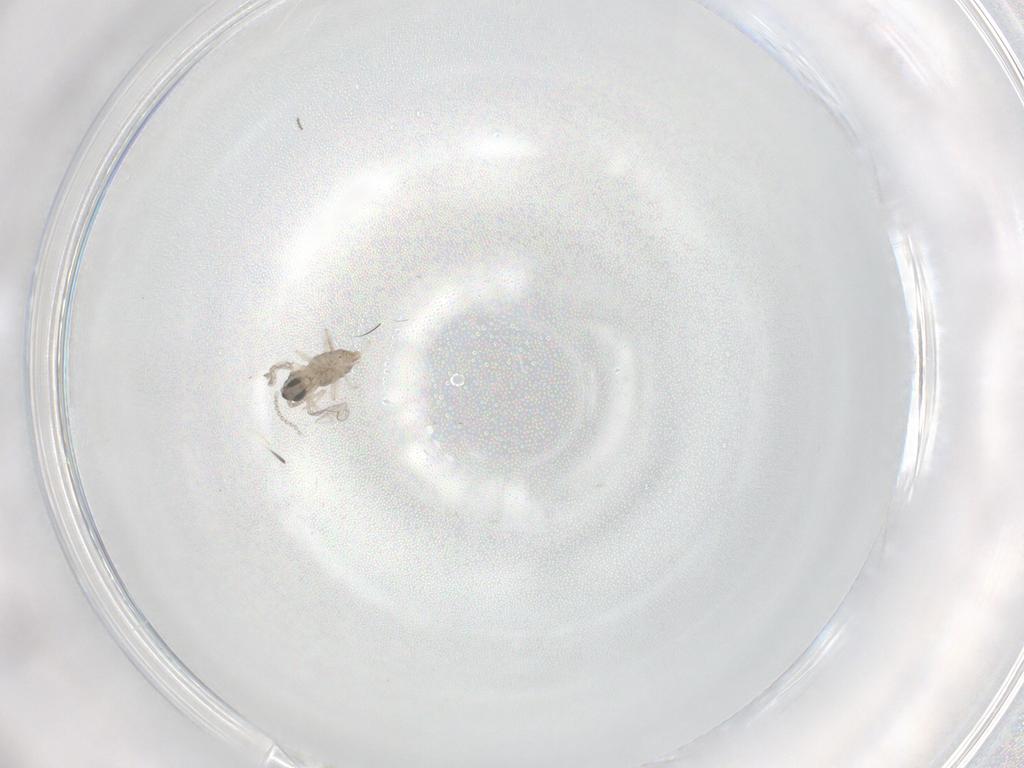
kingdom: Animalia
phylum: Arthropoda
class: Insecta
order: Diptera
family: Cecidomyiidae
